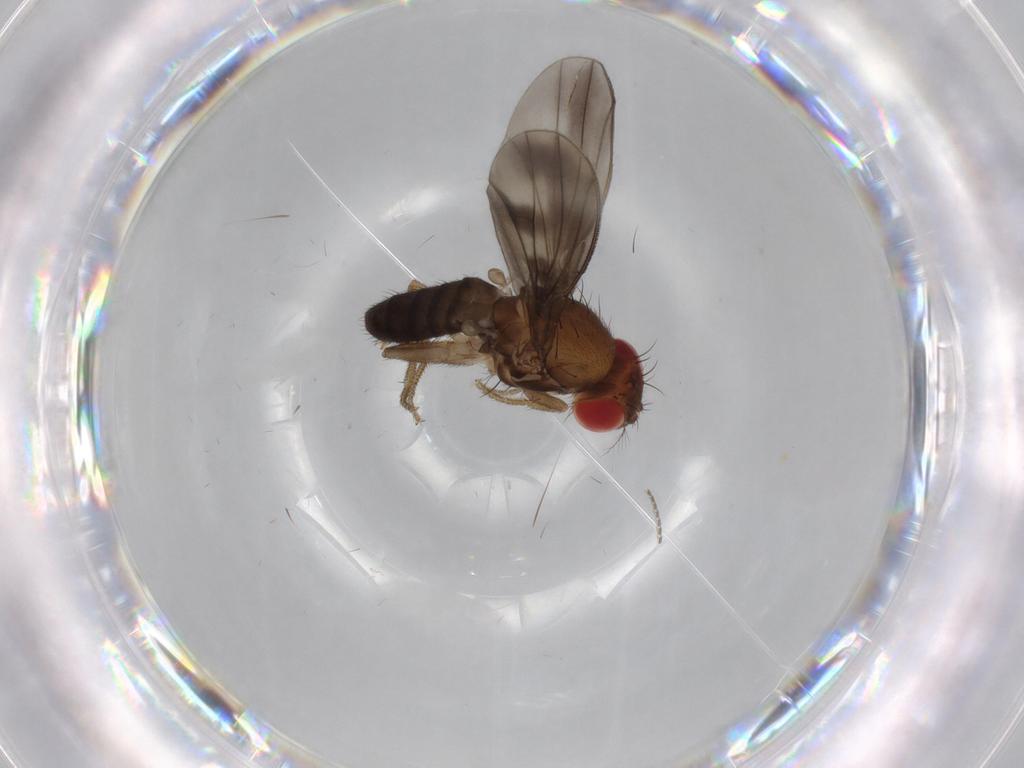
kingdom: Animalia
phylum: Arthropoda
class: Insecta
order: Diptera
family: Drosophilidae
